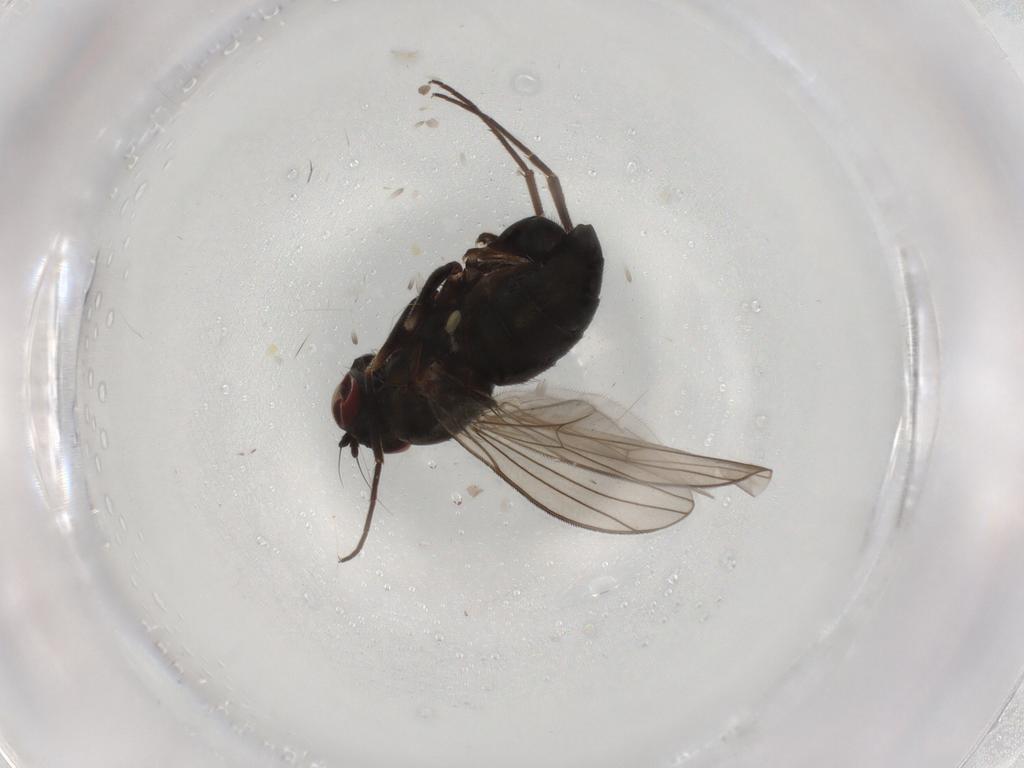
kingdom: Animalia
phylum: Arthropoda
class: Insecta
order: Diptera
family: Dolichopodidae
